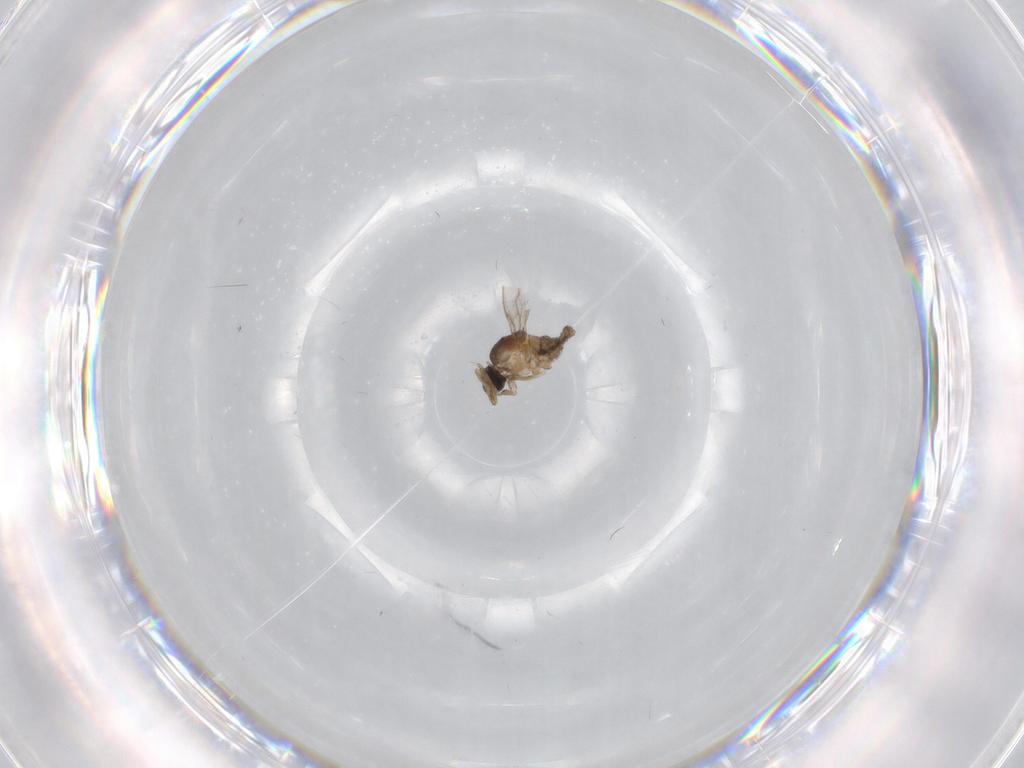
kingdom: Animalia
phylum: Arthropoda
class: Insecta
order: Diptera
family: Cecidomyiidae
